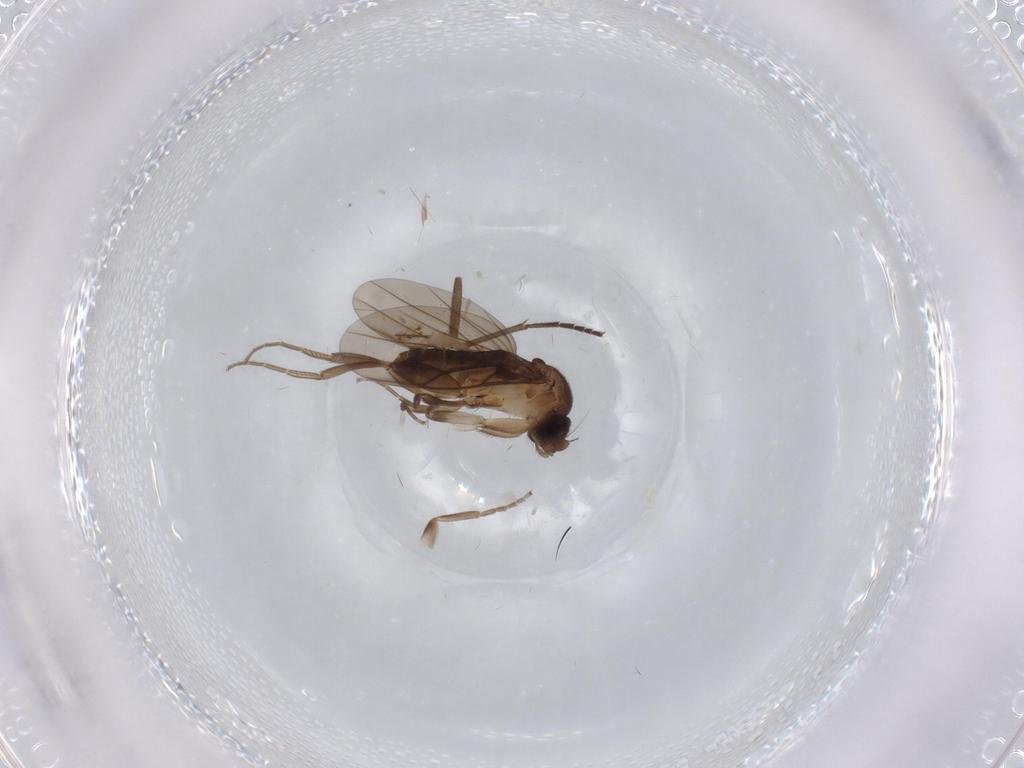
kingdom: Animalia
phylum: Arthropoda
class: Insecta
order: Diptera
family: Sciaridae
